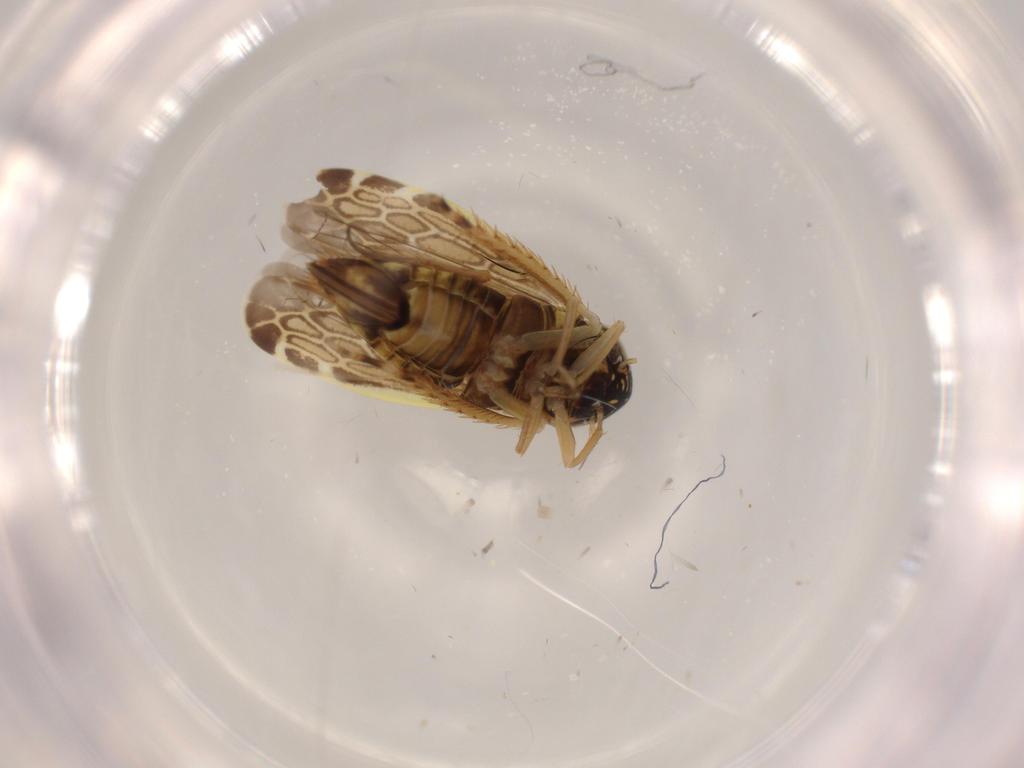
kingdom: Animalia
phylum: Arthropoda
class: Insecta
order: Hemiptera
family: Cicadellidae
